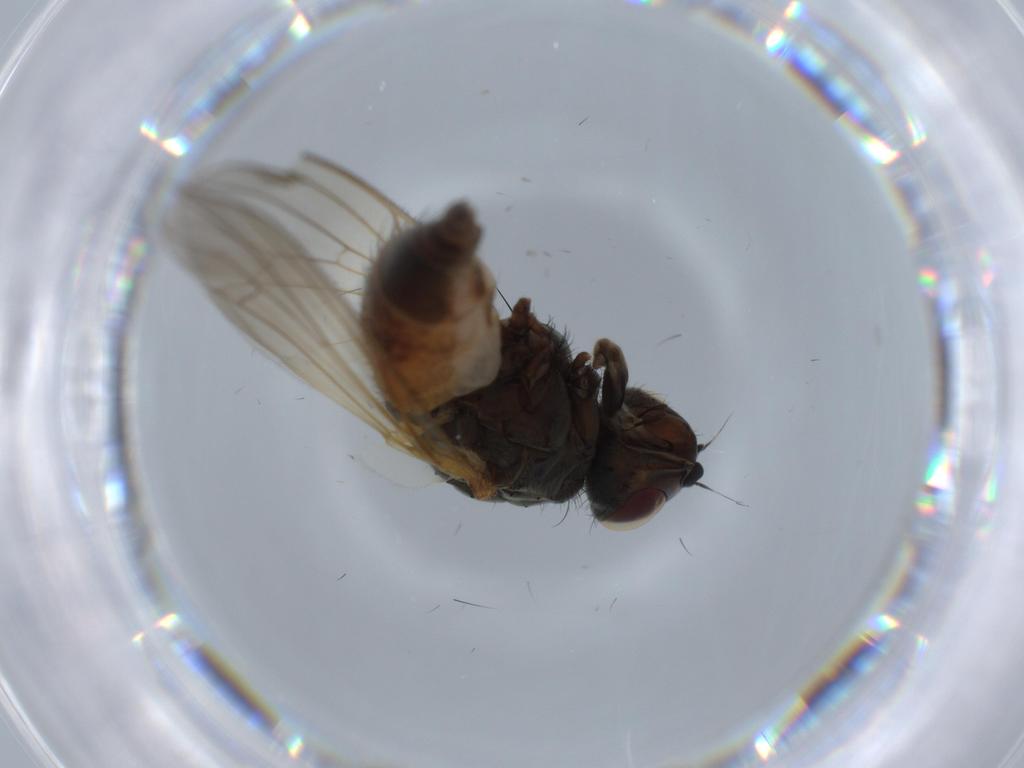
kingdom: Animalia
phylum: Arthropoda
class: Insecta
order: Diptera
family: Anthomyiidae
